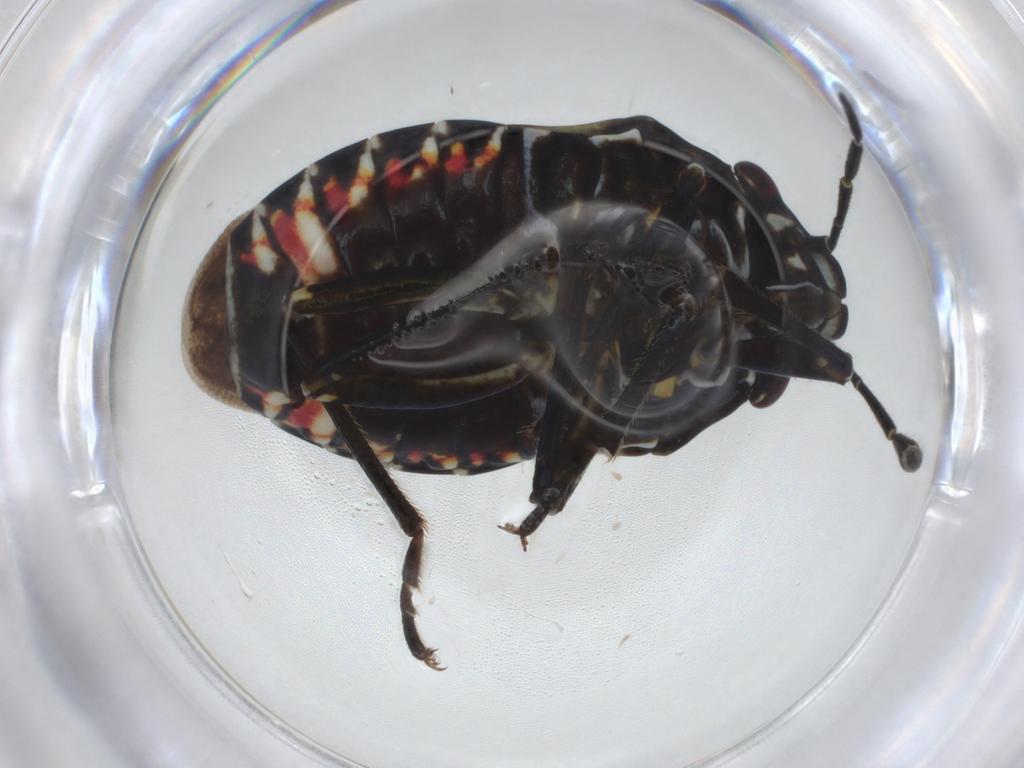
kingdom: Animalia
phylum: Arthropoda
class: Insecta
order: Hemiptera
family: Pentatomidae
